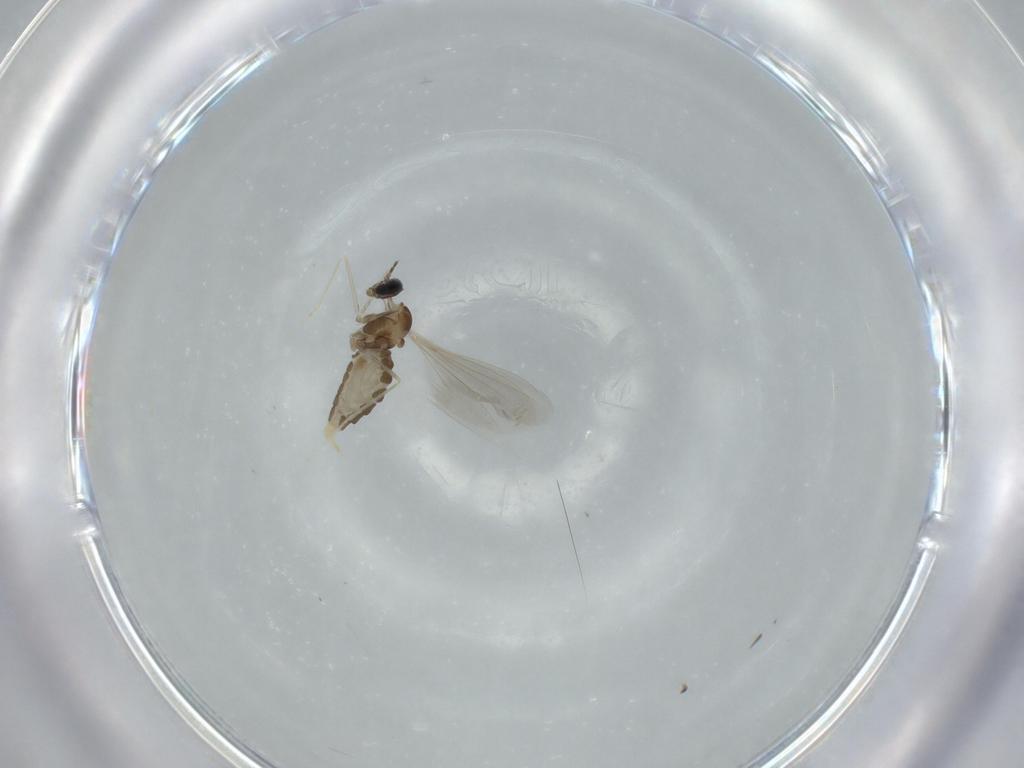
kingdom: Animalia
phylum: Arthropoda
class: Insecta
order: Diptera
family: Cecidomyiidae
